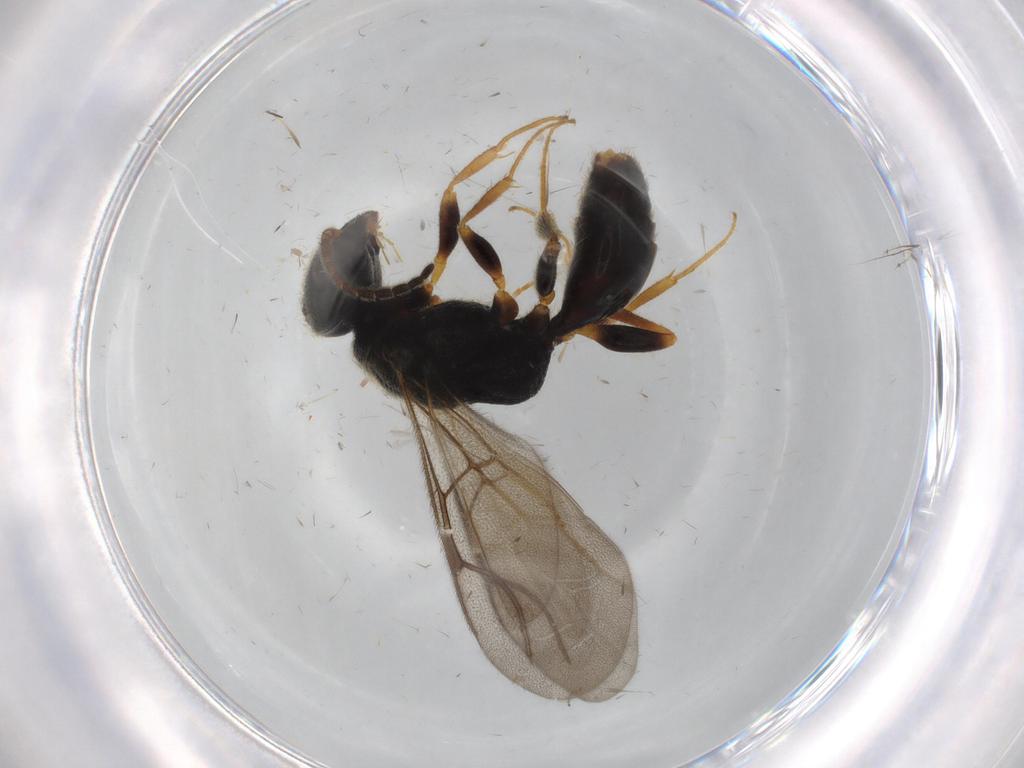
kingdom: Animalia
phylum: Arthropoda
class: Insecta
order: Hymenoptera
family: Bethylidae
